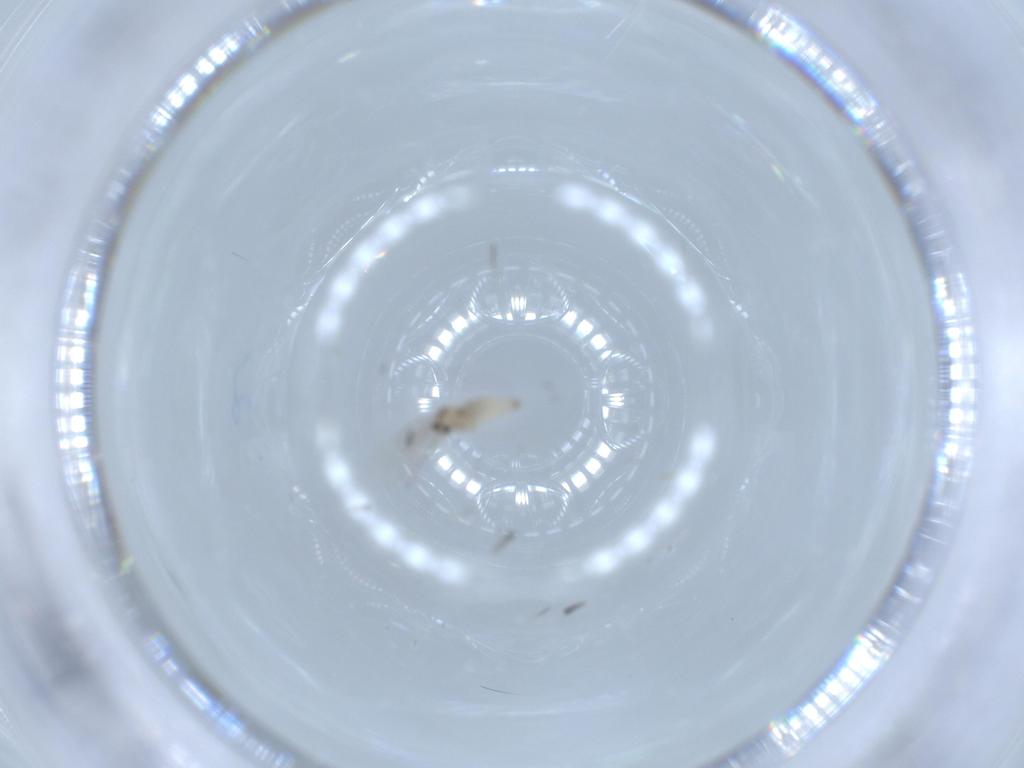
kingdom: Animalia
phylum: Arthropoda
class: Insecta
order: Diptera
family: Cecidomyiidae
